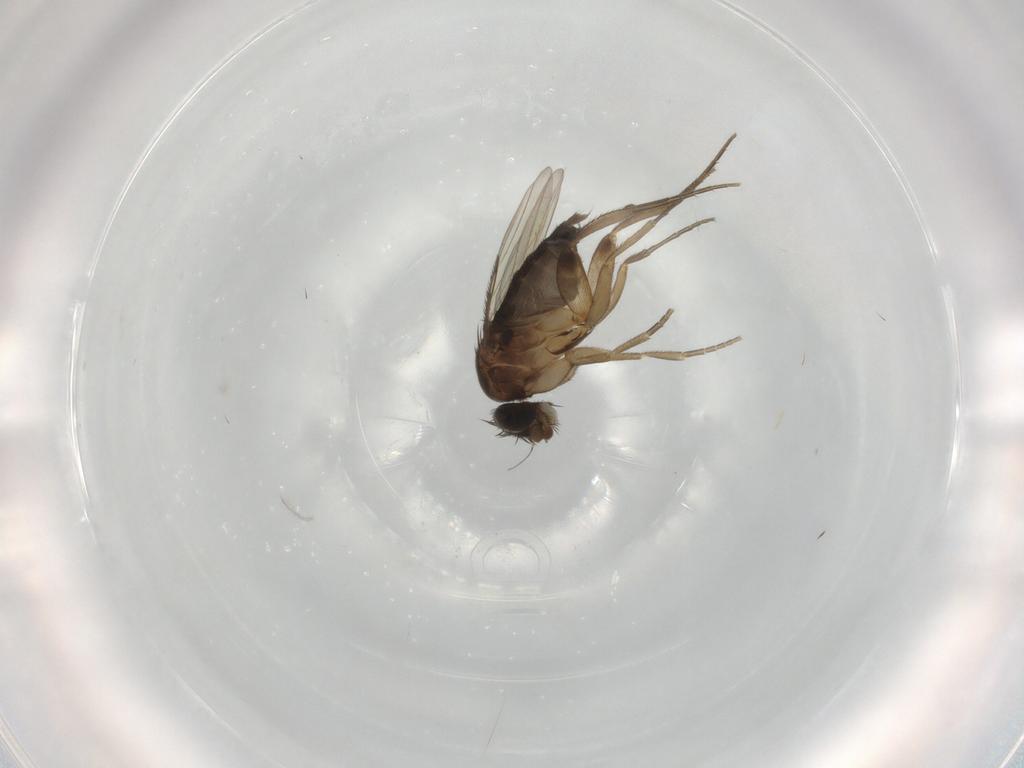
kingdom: Animalia
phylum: Arthropoda
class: Insecta
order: Diptera
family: Phoridae
